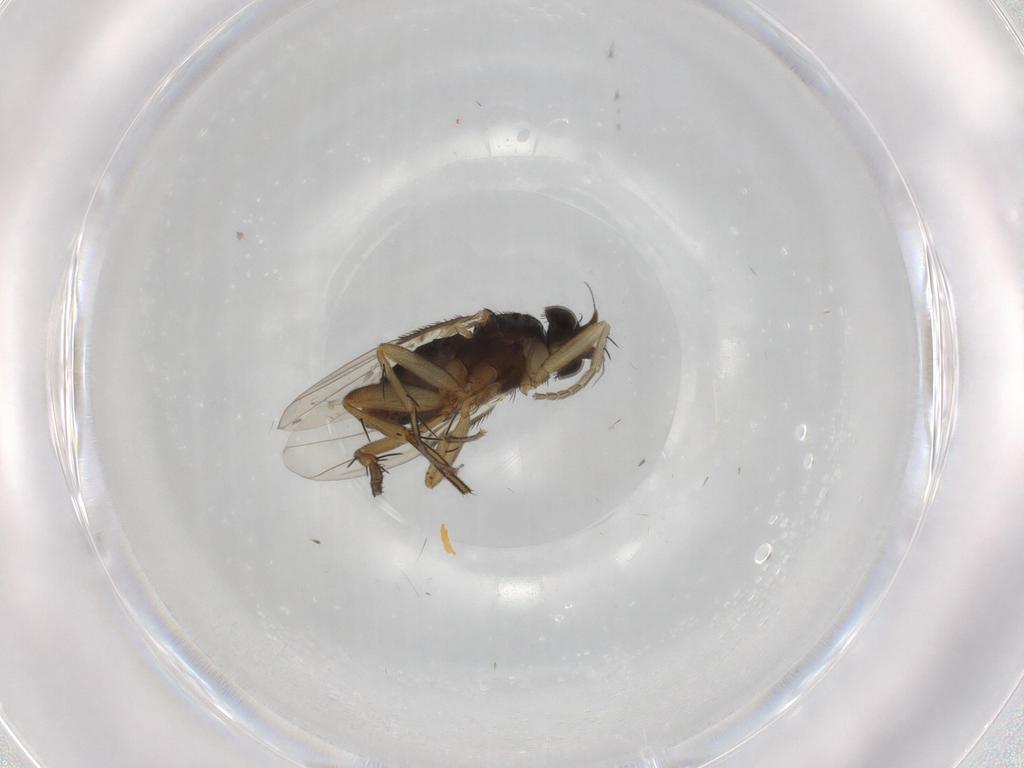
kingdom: Animalia
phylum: Arthropoda
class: Insecta
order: Diptera
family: Phoridae
